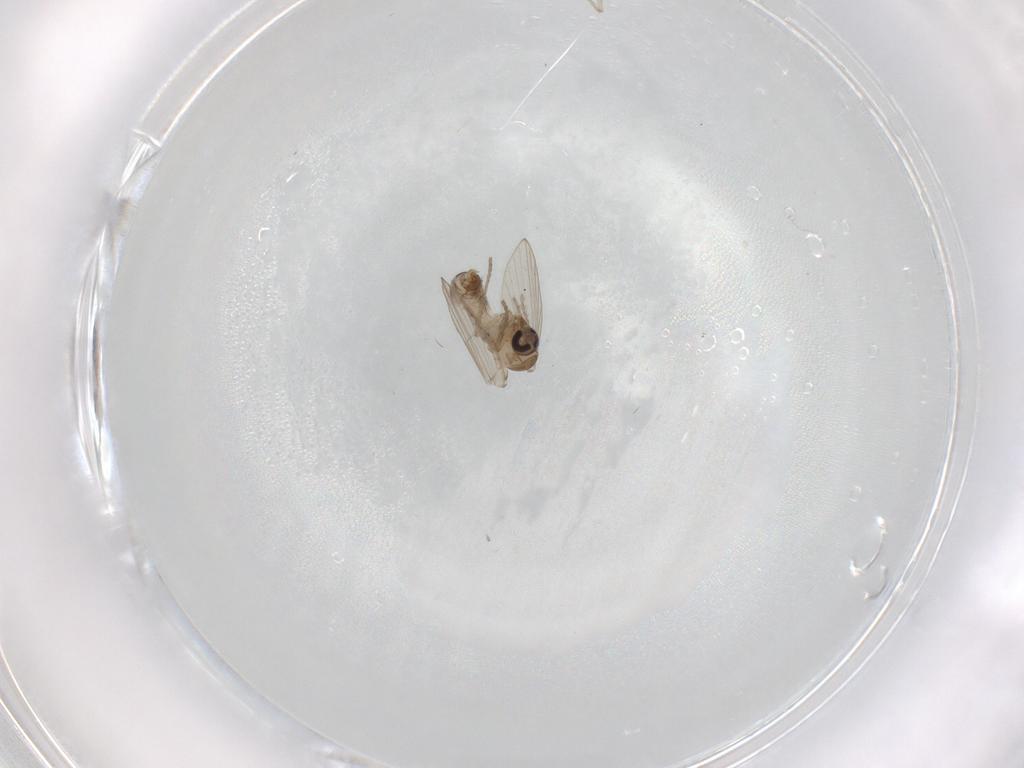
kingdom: Animalia
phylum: Arthropoda
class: Insecta
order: Diptera
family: Psychodidae
